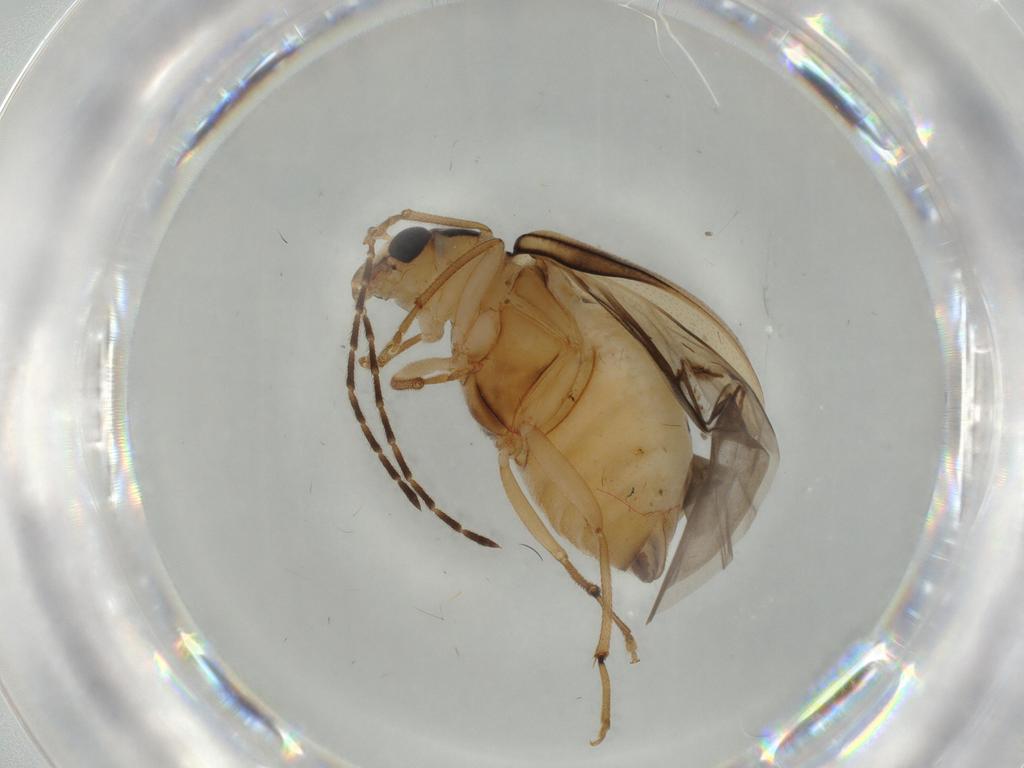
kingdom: Animalia
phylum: Arthropoda
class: Insecta
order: Coleoptera
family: Chrysomelidae
